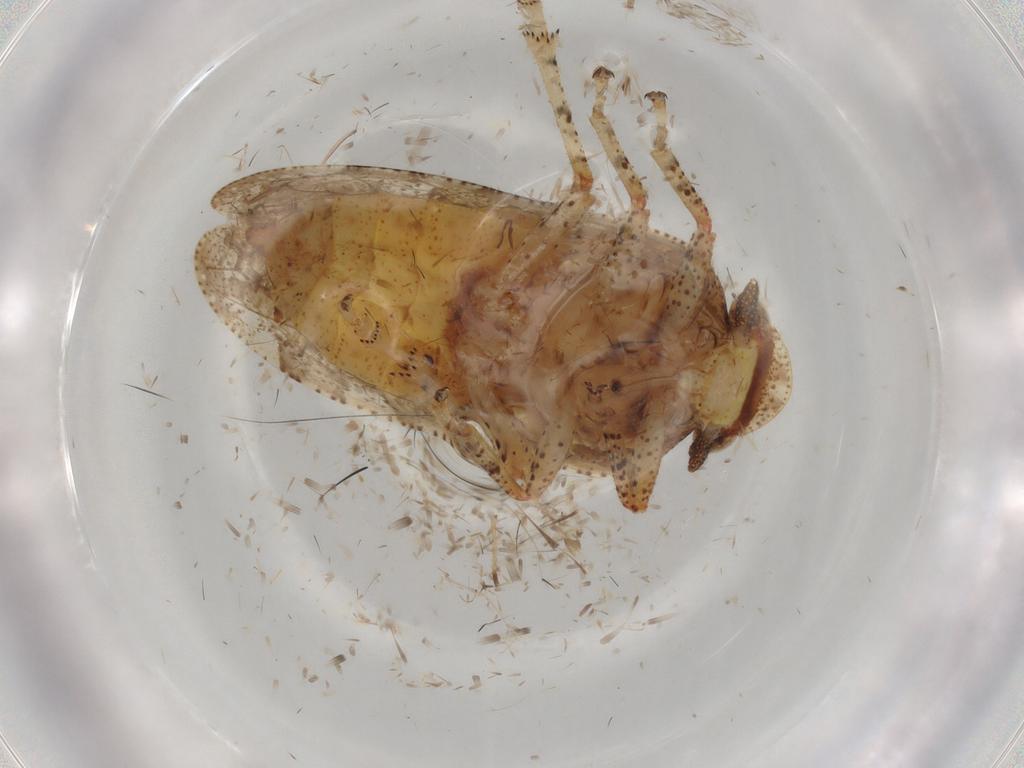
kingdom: Animalia
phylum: Arthropoda
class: Insecta
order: Hemiptera
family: Tettigometridae
